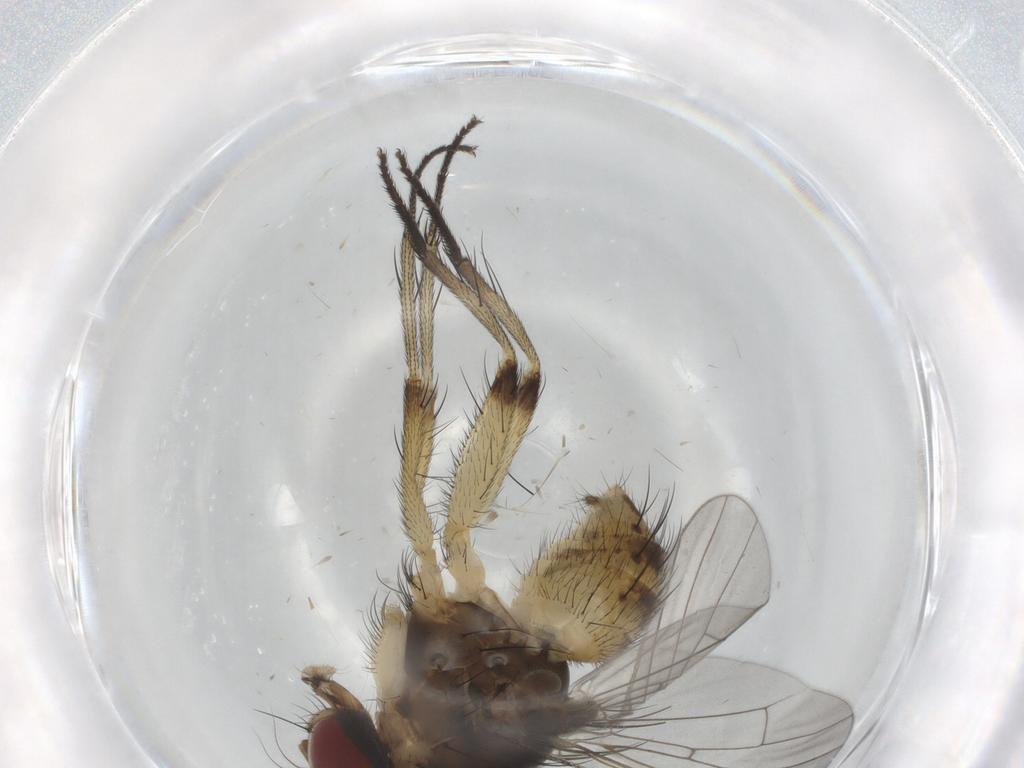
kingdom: Animalia
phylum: Arthropoda
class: Insecta
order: Diptera
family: Cecidomyiidae
